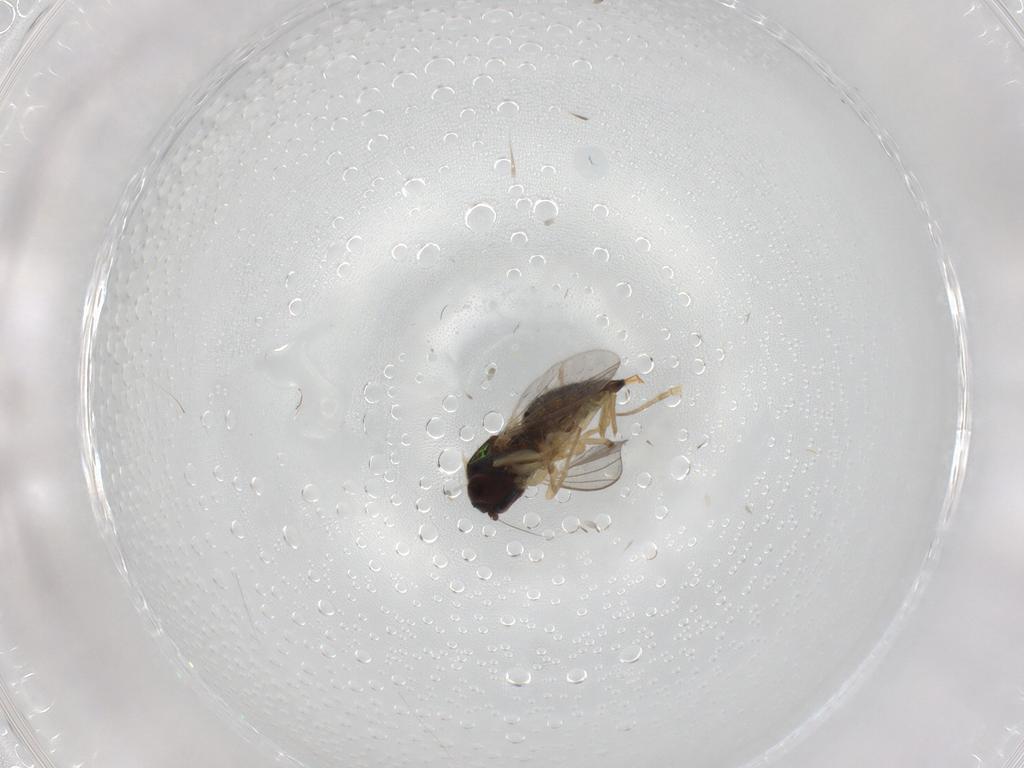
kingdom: Animalia
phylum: Arthropoda
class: Insecta
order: Diptera
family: Dolichopodidae
